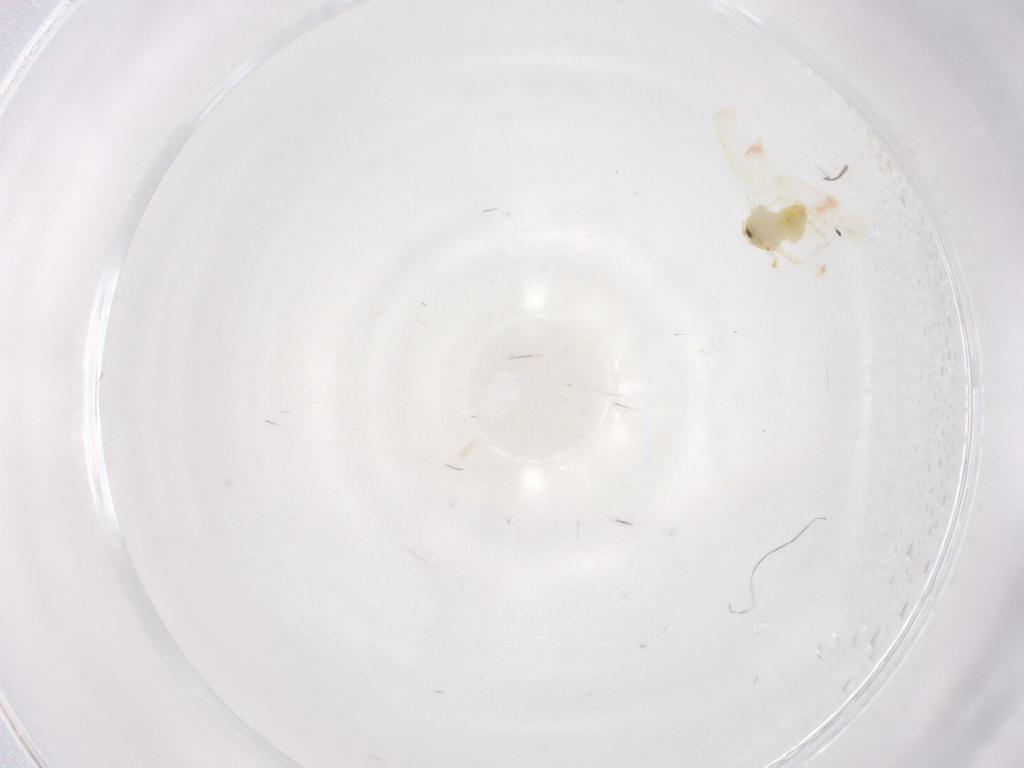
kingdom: Animalia
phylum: Arthropoda
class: Insecta
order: Hemiptera
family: Aleyrodidae
